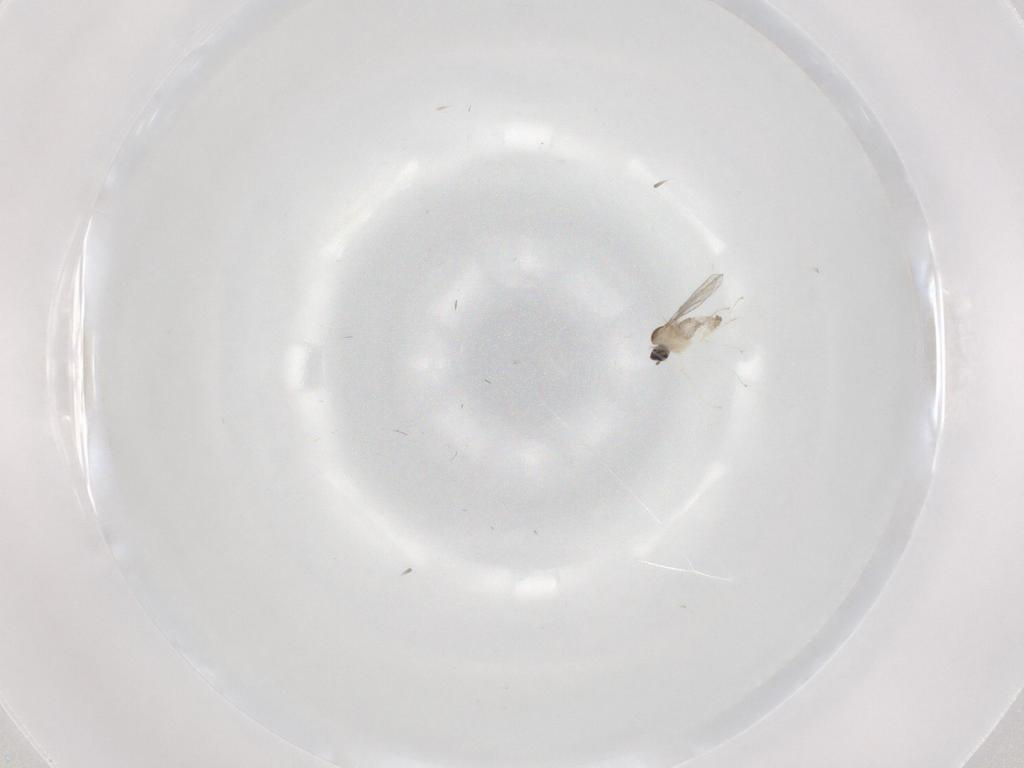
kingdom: Animalia
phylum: Arthropoda
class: Insecta
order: Diptera
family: Cecidomyiidae
